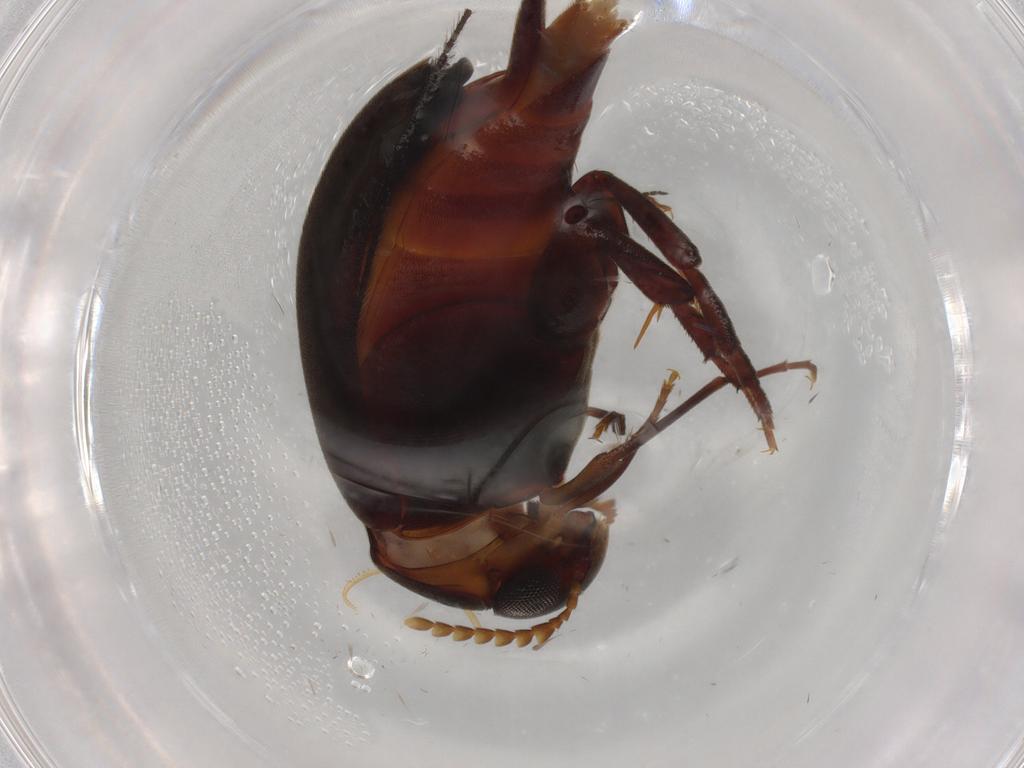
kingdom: Animalia
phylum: Arthropoda
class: Insecta
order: Coleoptera
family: Mordellidae
